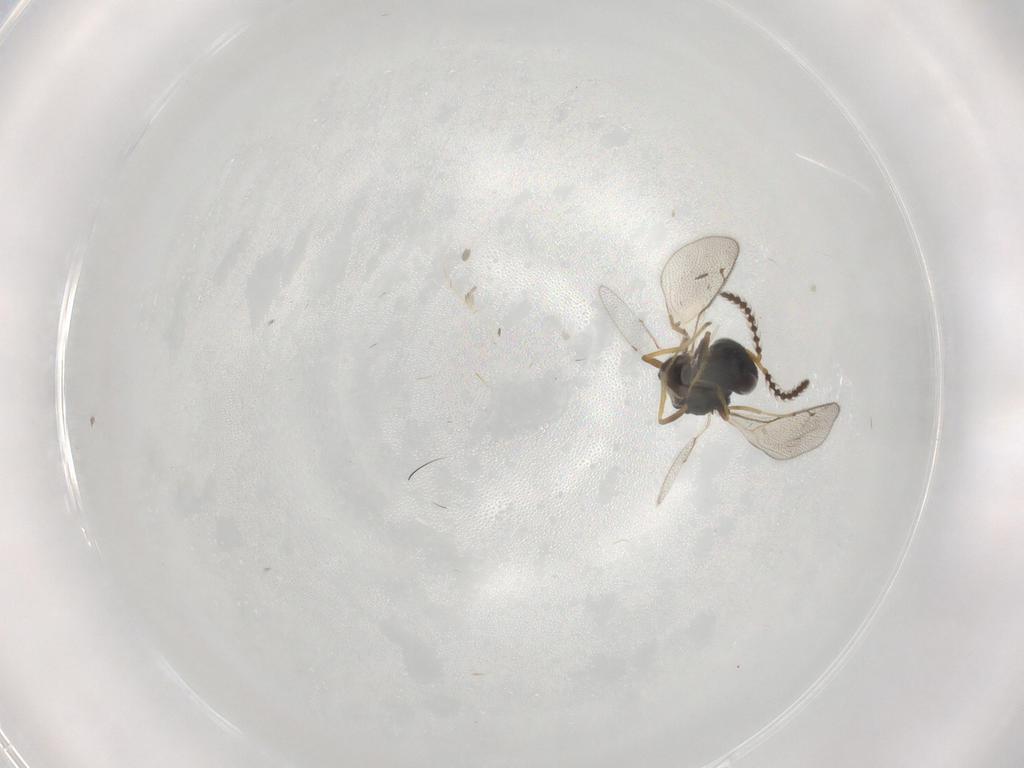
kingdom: Animalia
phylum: Arthropoda
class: Insecta
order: Hymenoptera
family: Pteromalidae
